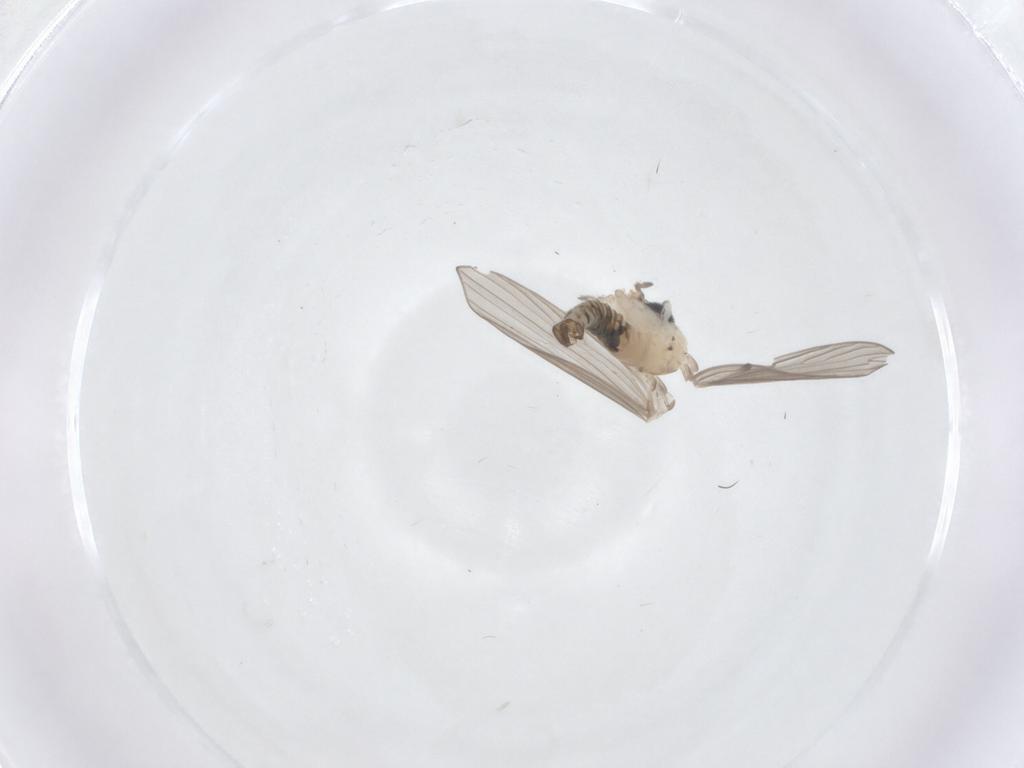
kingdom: Animalia
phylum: Arthropoda
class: Insecta
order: Diptera
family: Psychodidae
